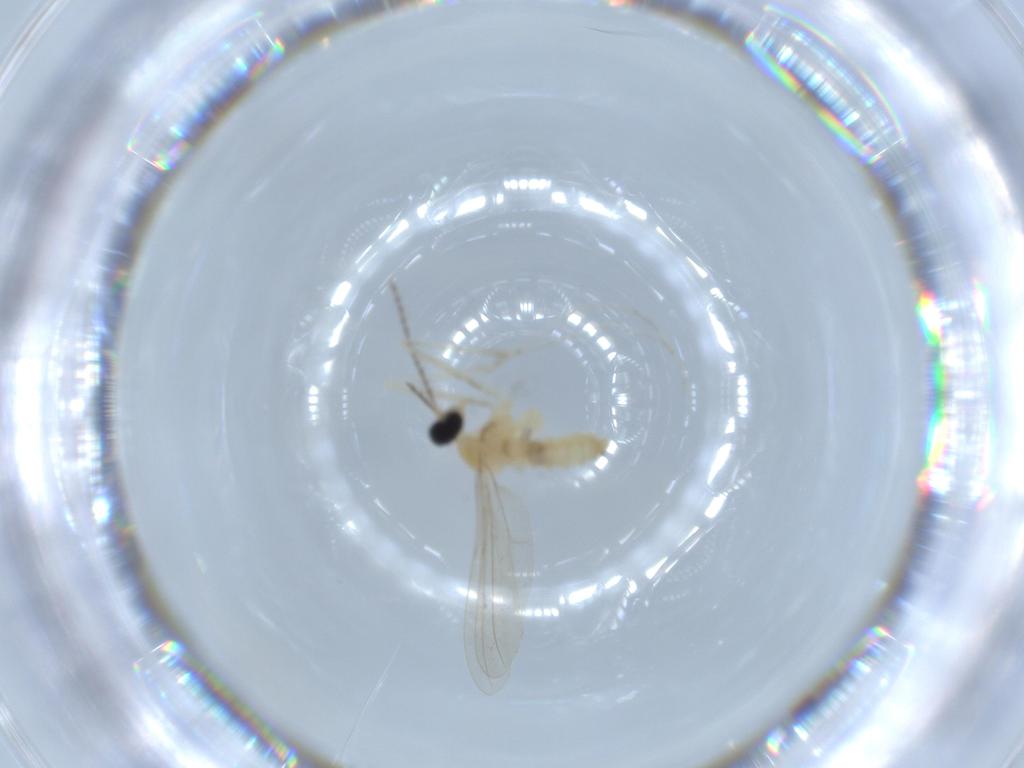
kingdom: Animalia
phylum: Arthropoda
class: Insecta
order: Diptera
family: Cecidomyiidae
